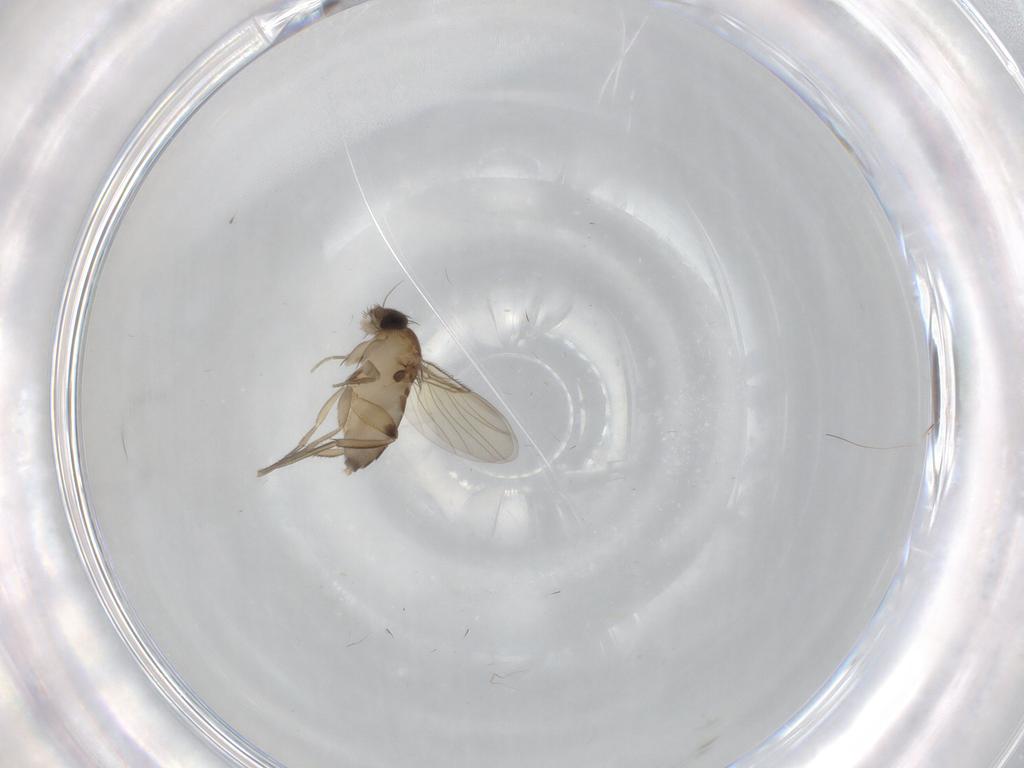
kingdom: Animalia
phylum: Arthropoda
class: Insecta
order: Diptera
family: Phoridae
